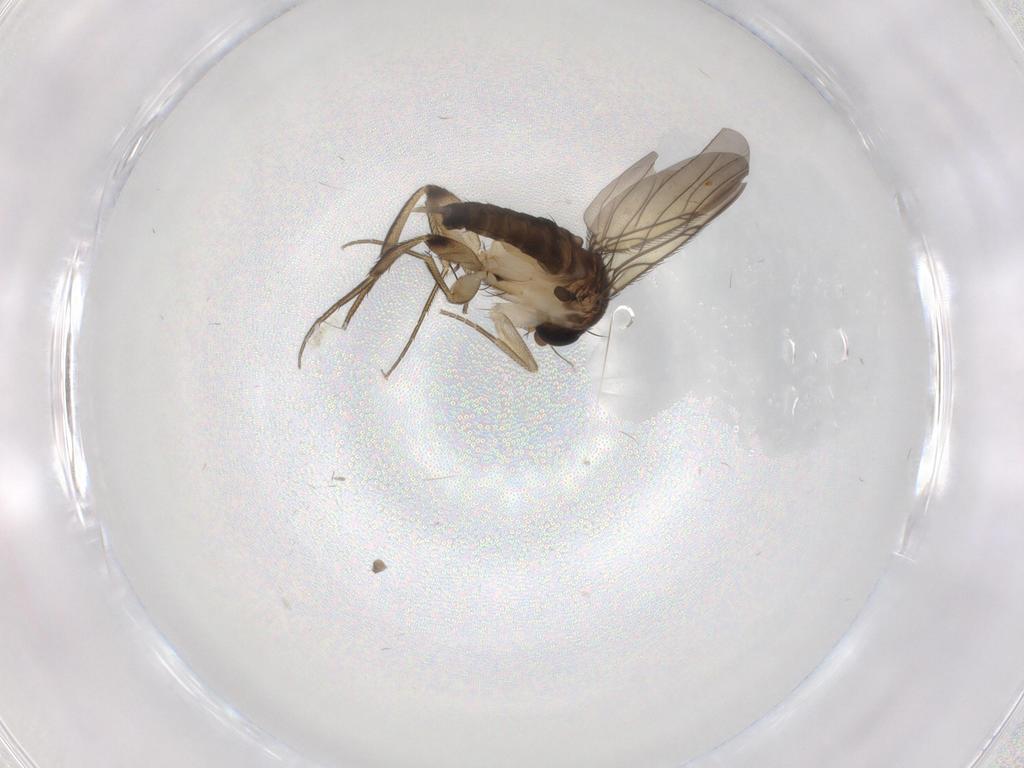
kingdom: Animalia
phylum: Arthropoda
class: Insecta
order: Diptera
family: Phoridae
